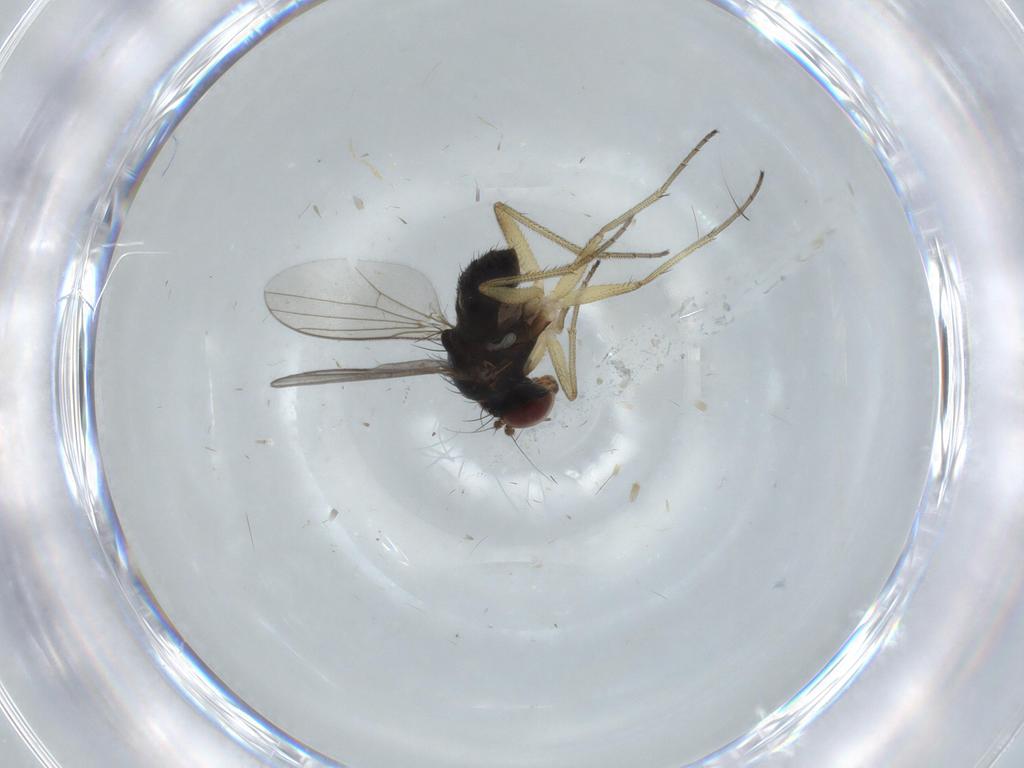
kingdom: Animalia
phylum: Arthropoda
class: Insecta
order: Diptera
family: Dolichopodidae
